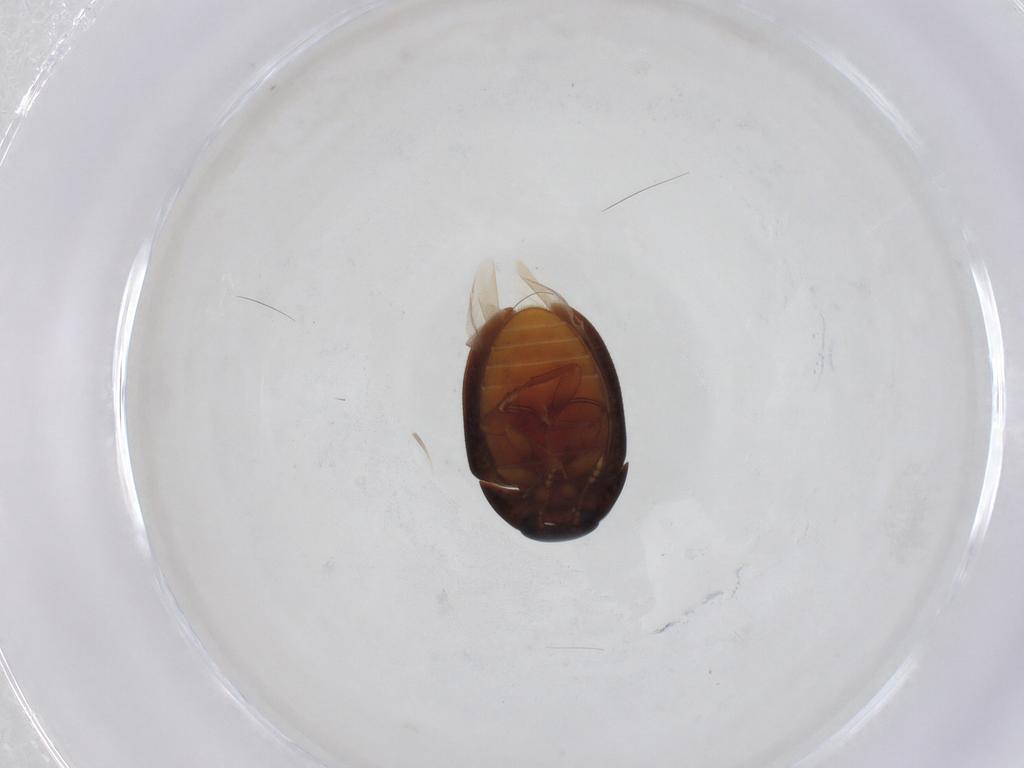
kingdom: Animalia
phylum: Arthropoda
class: Insecta
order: Coleoptera
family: Phalacridae
